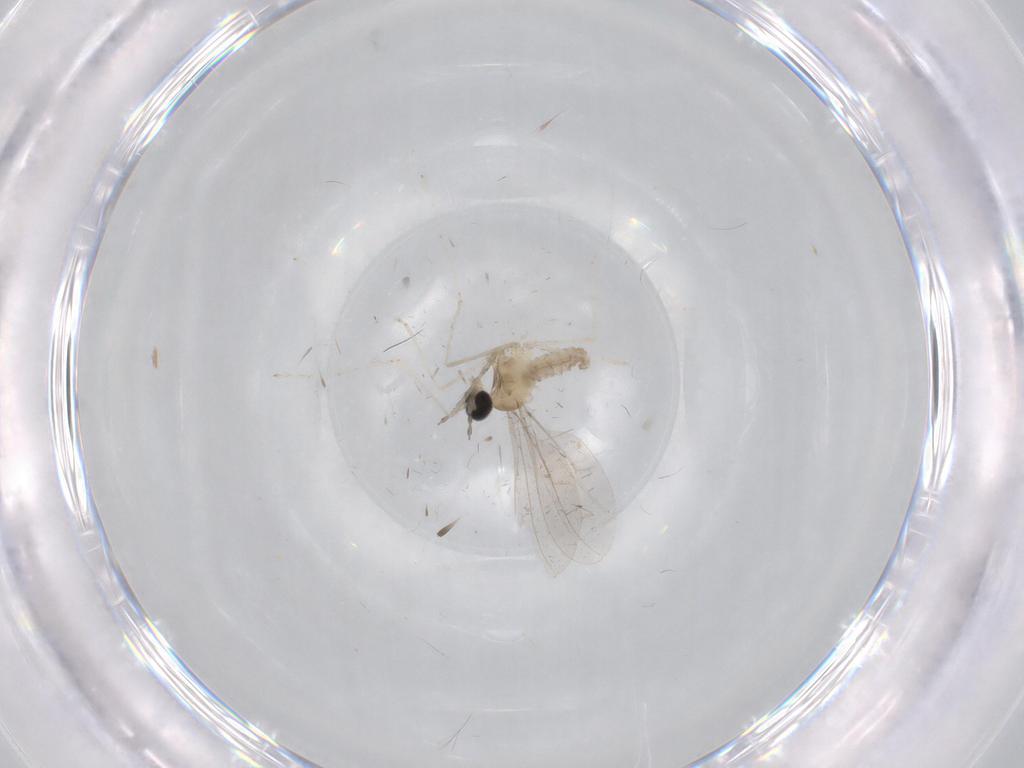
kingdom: Animalia
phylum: Arthropoda
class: Insecta
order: Diptera
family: Cecidomyiidae
